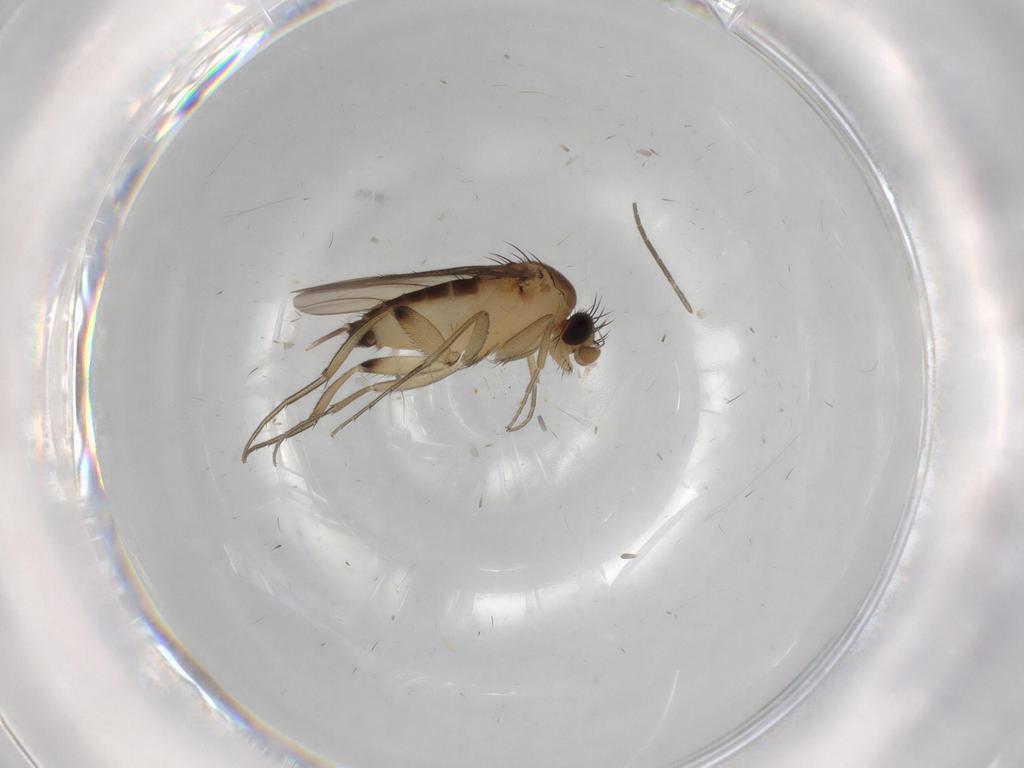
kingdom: Animalia
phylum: Arthropoda
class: Insecta
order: Diptera
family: Phoridae
